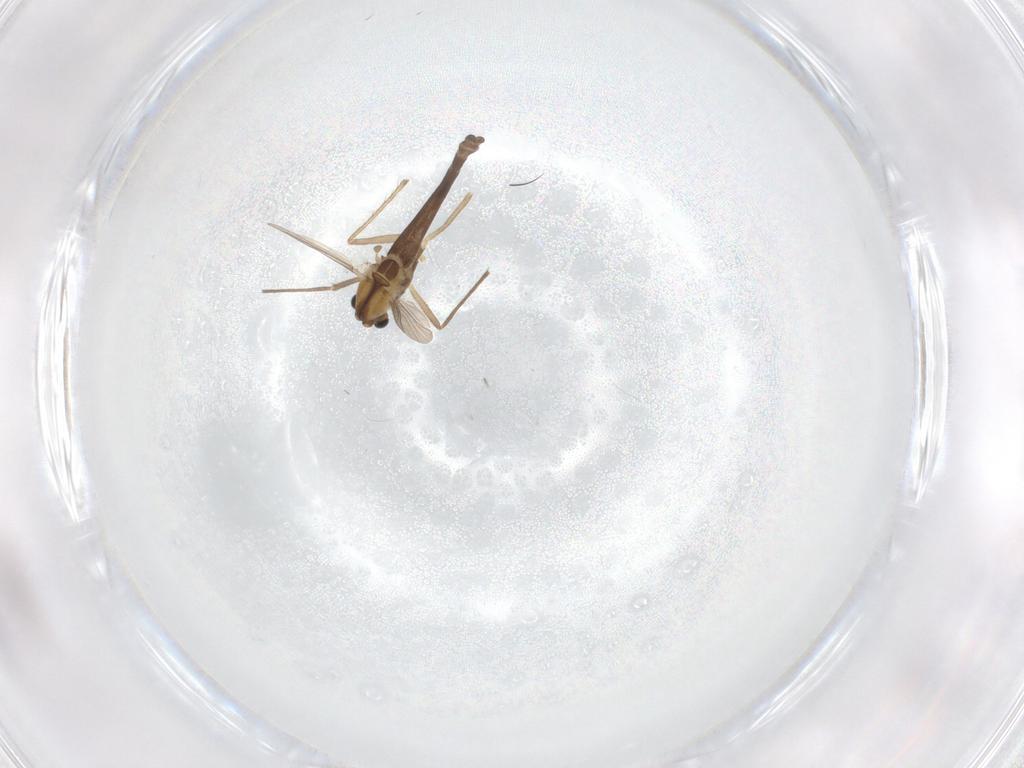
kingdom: Animalia
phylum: Arthropoda
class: Insecta
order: Diptera
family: Chironomidae
